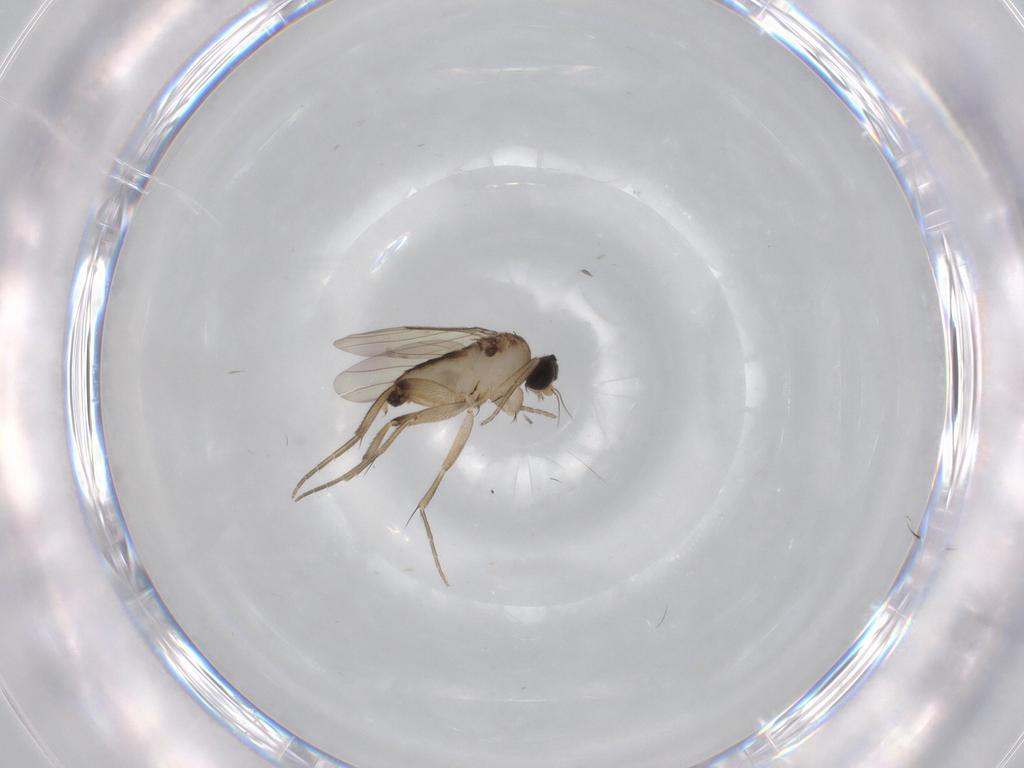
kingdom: Animalia
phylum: Arthropoda
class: Insecta
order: Diptera
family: Phoridae
